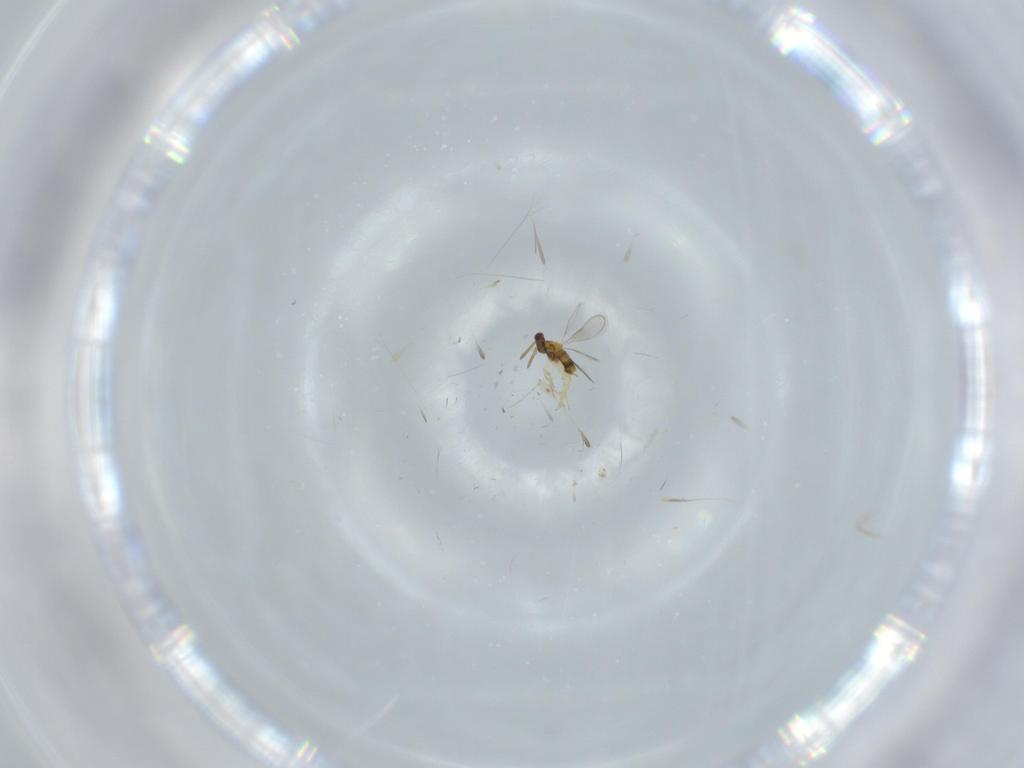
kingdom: Animalia
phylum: Arthropoda
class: Insecta
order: Hymenoptera
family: Aphelinidae
